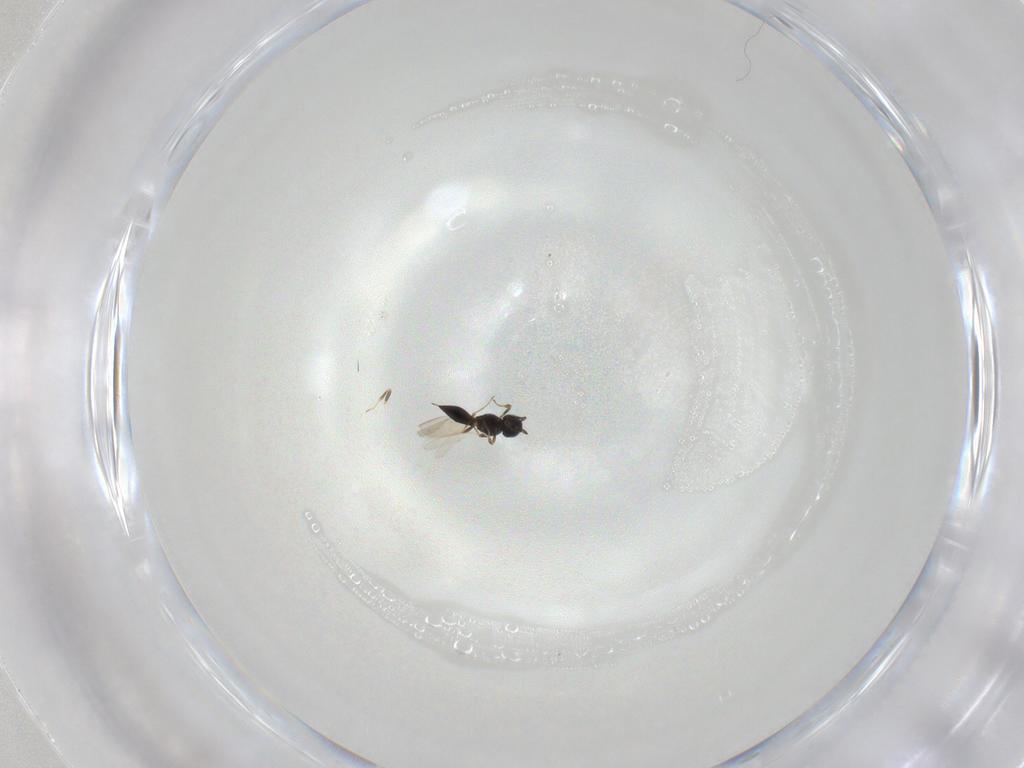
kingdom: Animalia
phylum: Arthropoda
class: Insecta
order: Hymenoptera
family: Scelionidae
